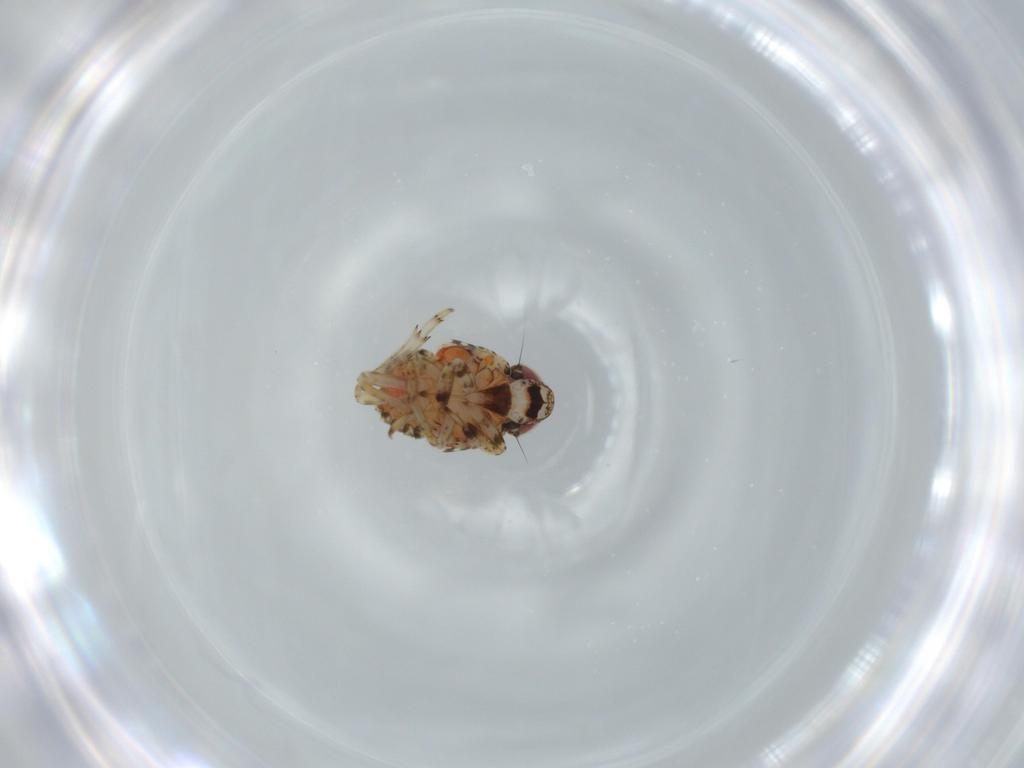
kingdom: Animalia
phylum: Arthropoda
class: Insecta
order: Hemiptera
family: Issidae
